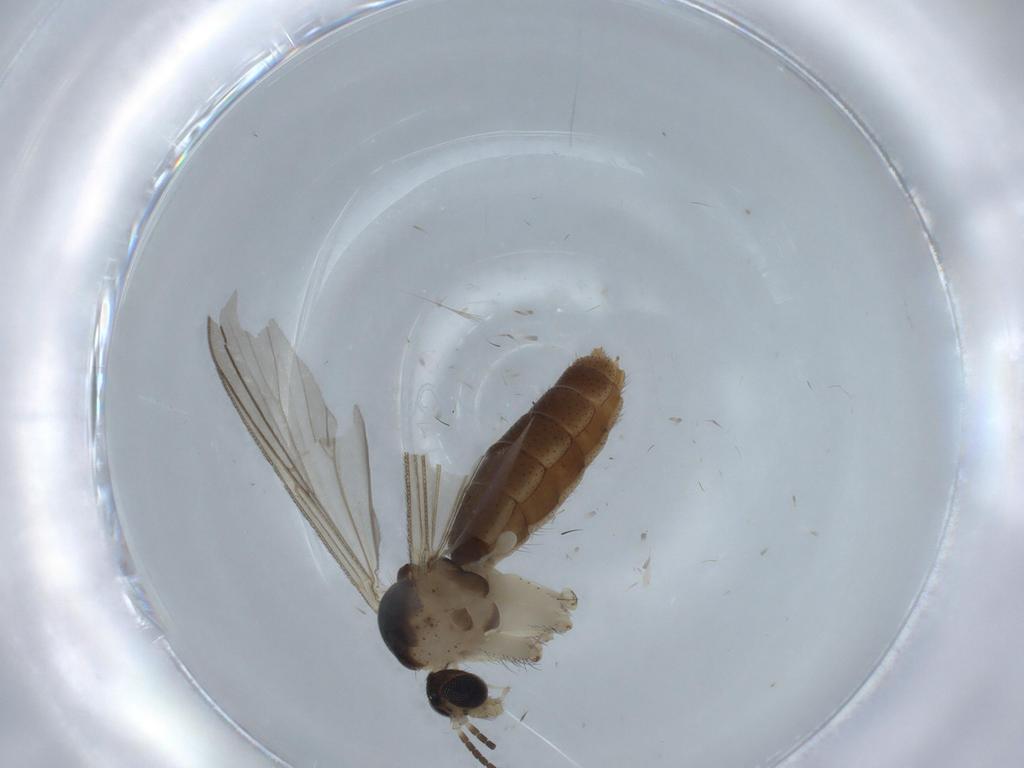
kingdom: Animalia
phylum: Arthropoda
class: Insecta
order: Diptera
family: Mycetophilidae
